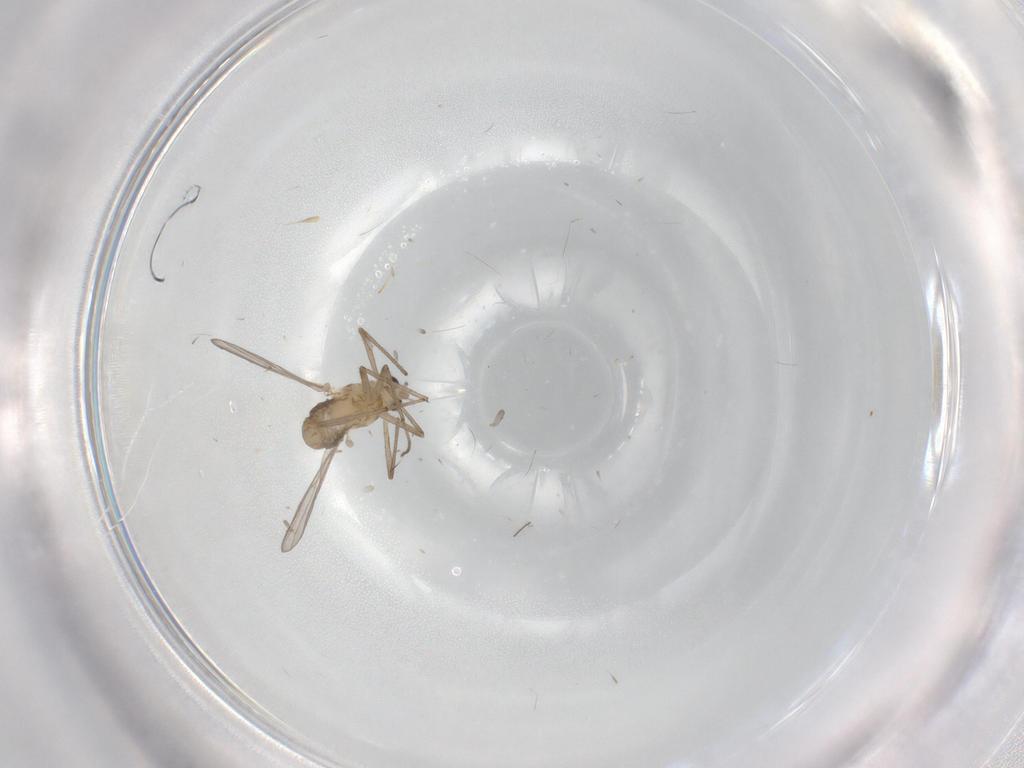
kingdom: Animalia
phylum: Arthropoda
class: Insecta
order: Diptera
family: Chironomidae
